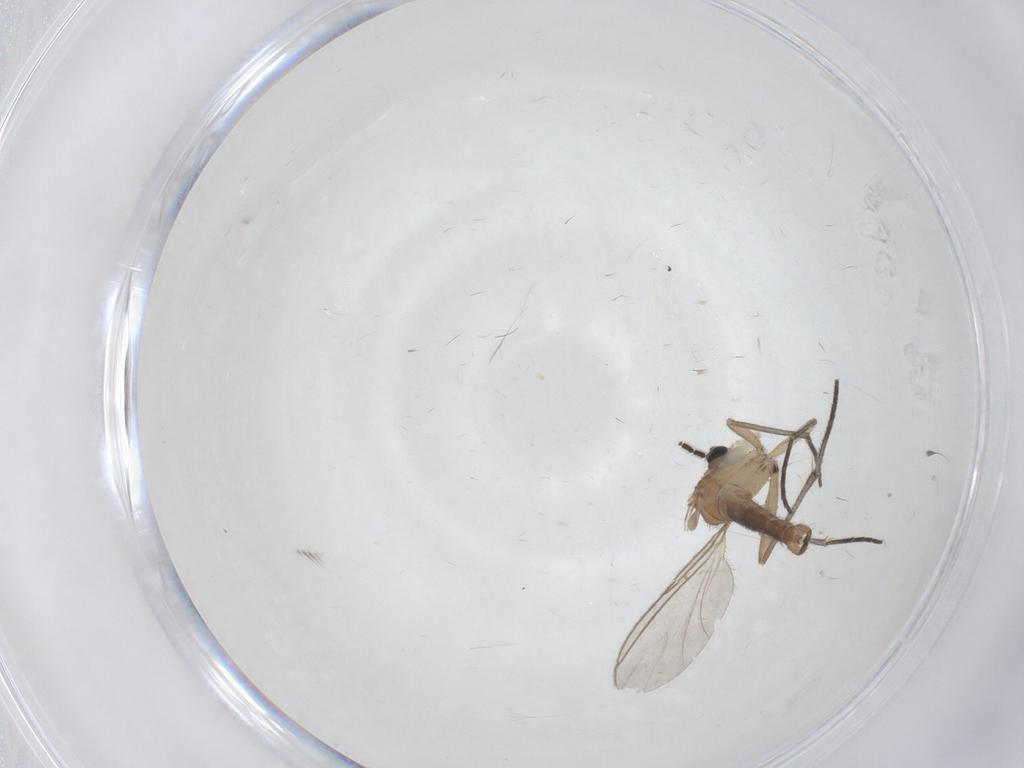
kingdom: Animalia
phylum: Arthropoda
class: Insecta
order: Diptera
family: Sciaridae
